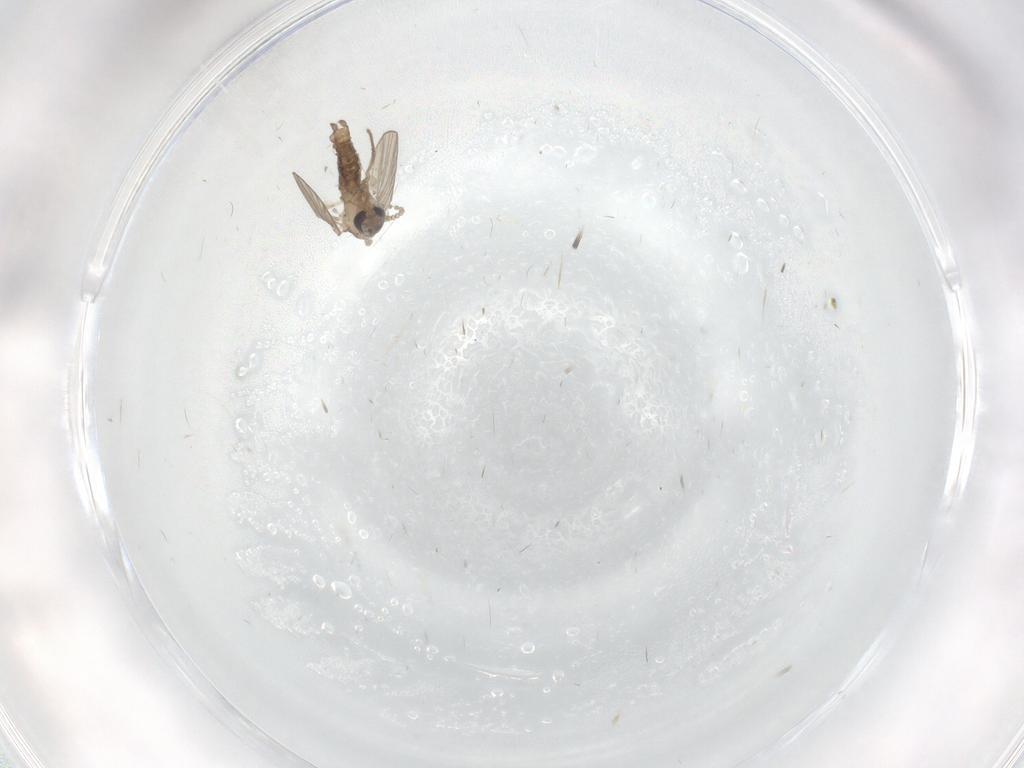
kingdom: Animalia
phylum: Arthropoda
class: Insecta
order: Diptera
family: Psychodidae
